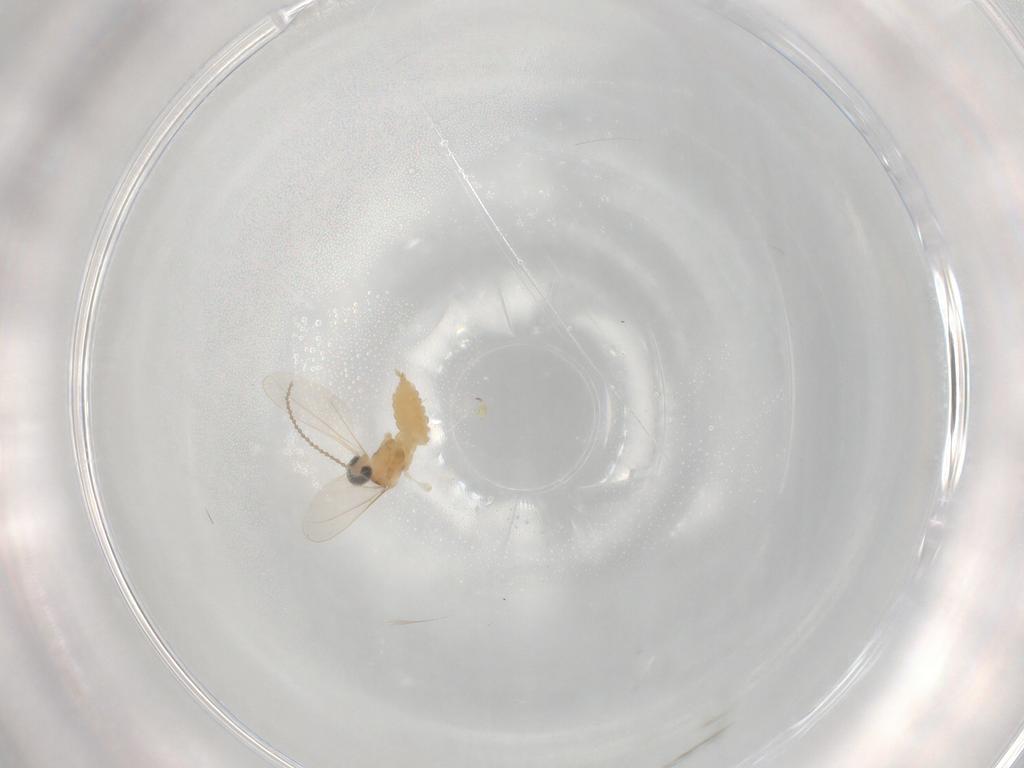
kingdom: Animalia
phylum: Arthropoda
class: Insecta
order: Diptera
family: Cecidomyiidae
